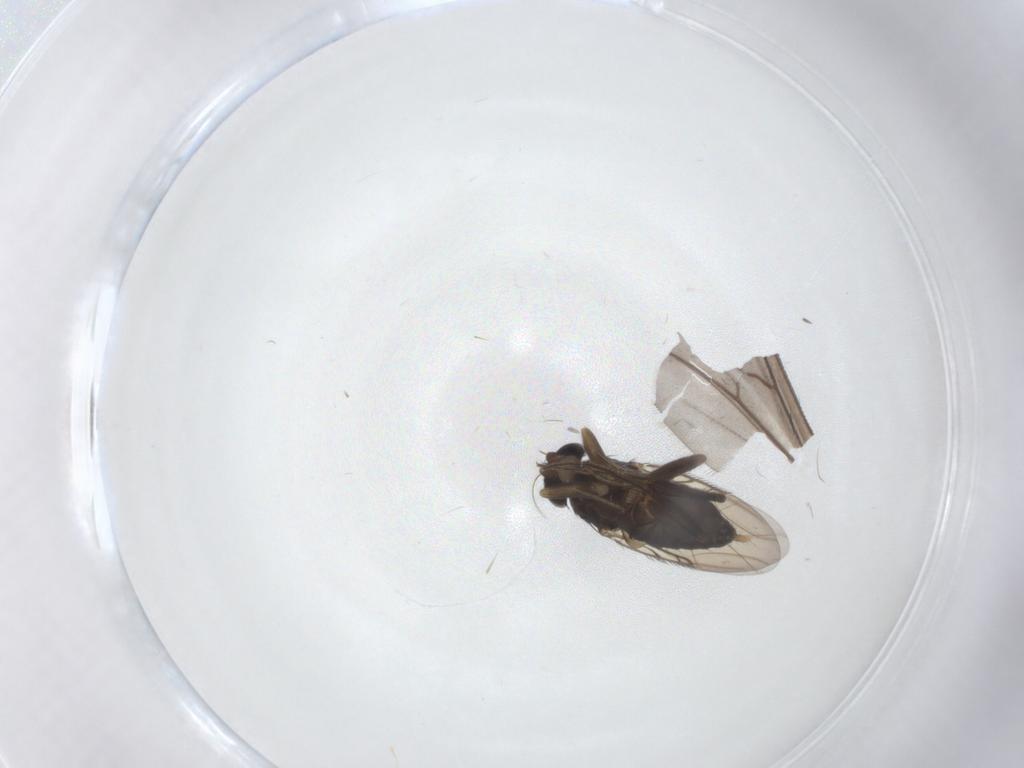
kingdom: Animalia
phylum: Arthropoda
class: Insecta
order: Diptera
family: Ditomyiidae
